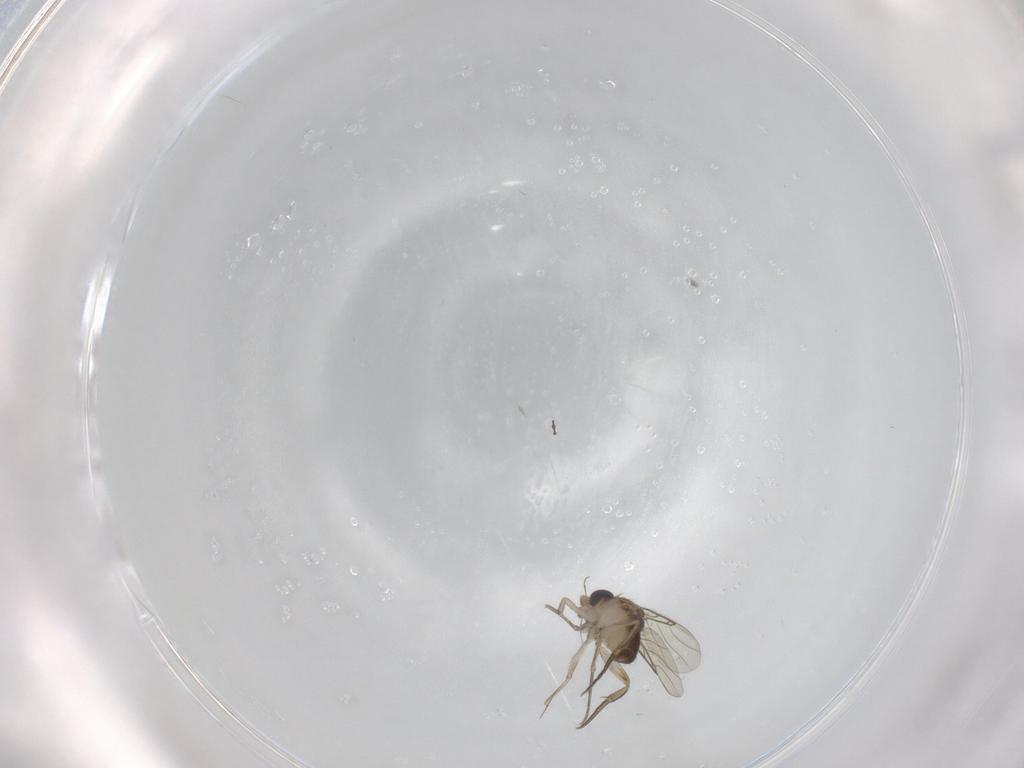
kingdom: Animalia
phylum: Arthropoda
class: Insecta
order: Diptera
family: Phoridae
